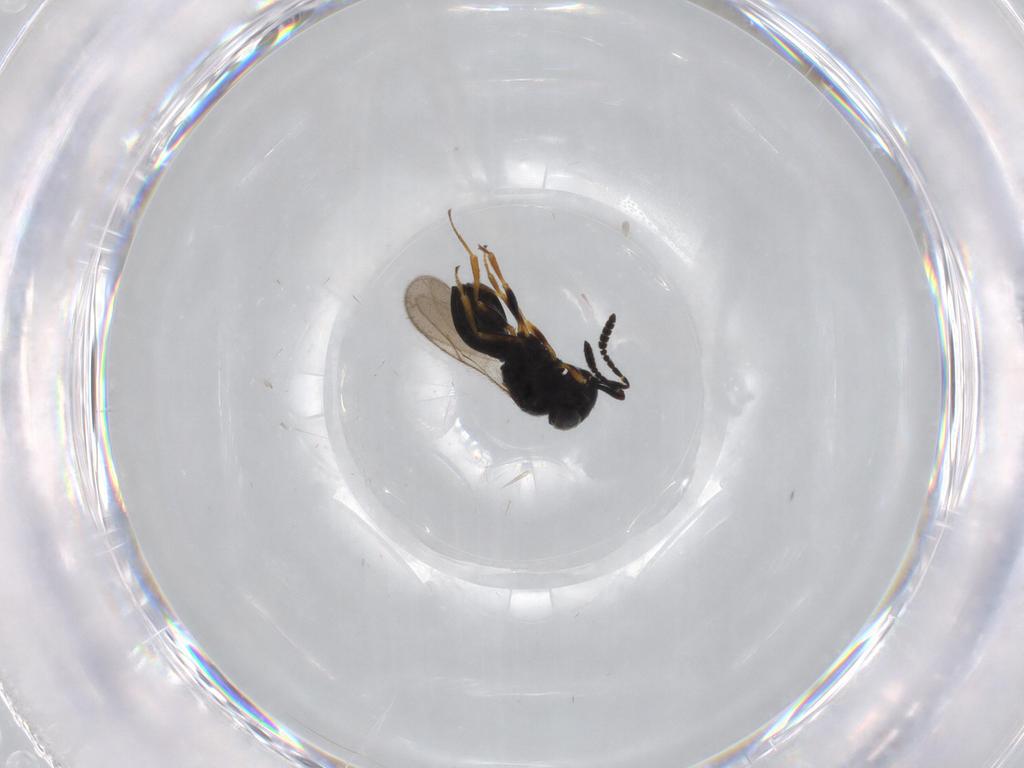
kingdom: Animalia
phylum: Arthropoda
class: Insecta
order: Hymenoptera
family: Scelionidae
